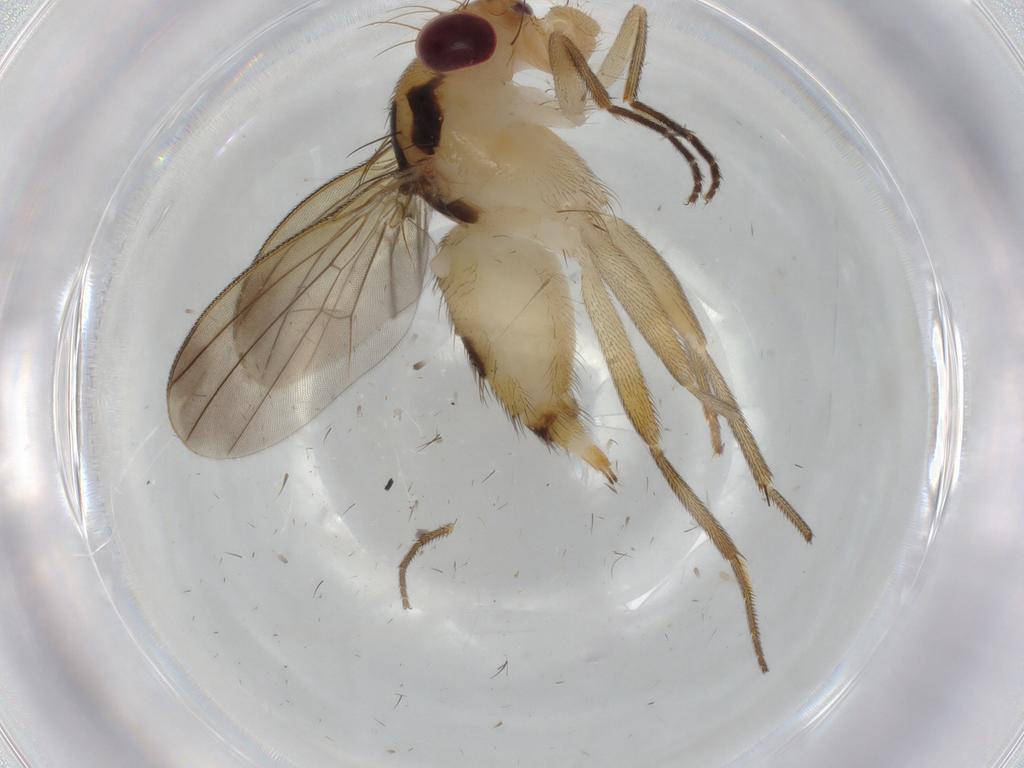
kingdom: Animalia
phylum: Arthropoda
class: Insecta
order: Diptera
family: Clusiidae
